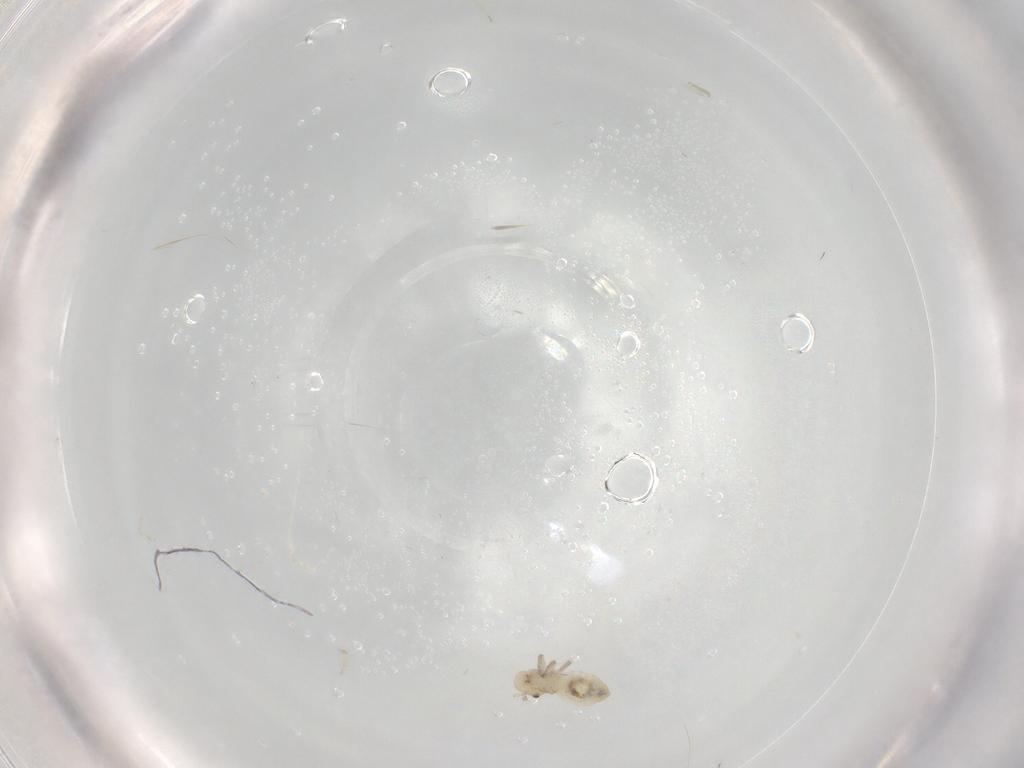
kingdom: Animalia
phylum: Arthropoda
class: Insecta
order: Psocodea
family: Caeciliusidae
